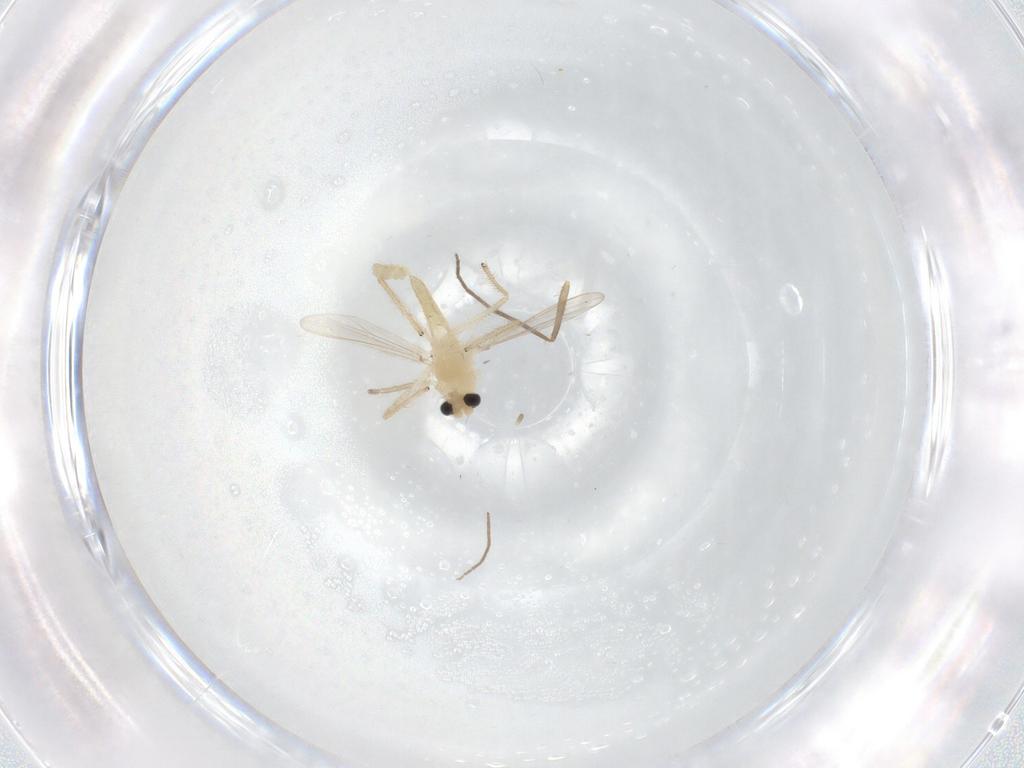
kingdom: Animalia
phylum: Arthropoda
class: Insecta
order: Diptera
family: Chironomidae
